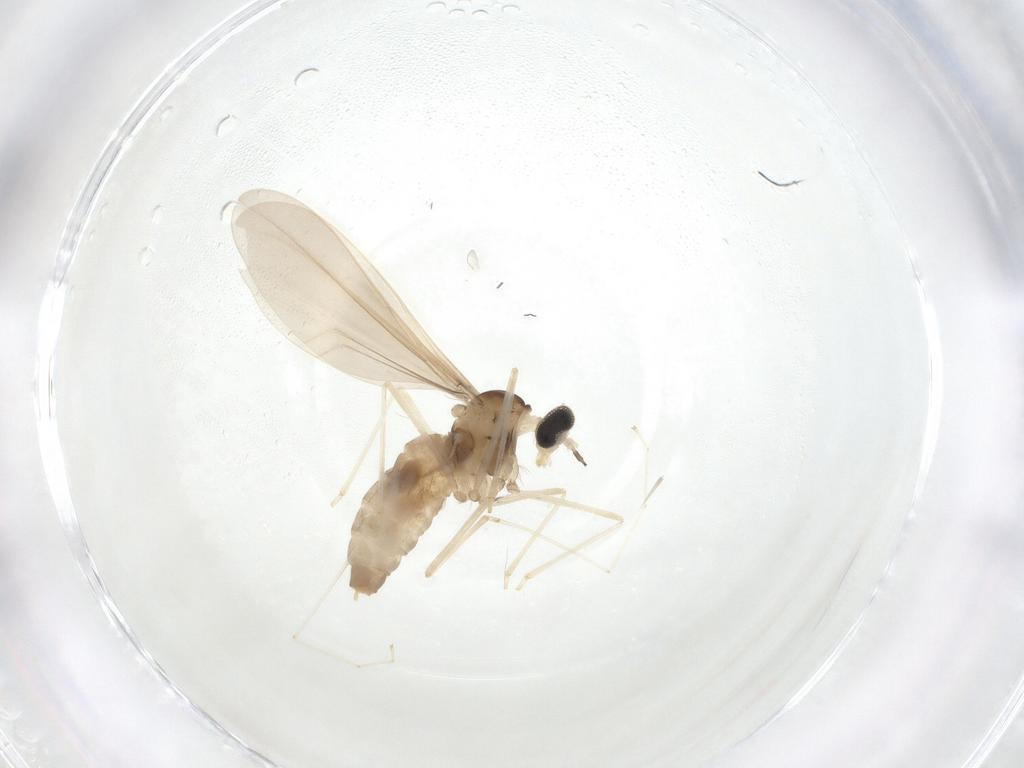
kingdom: Animalia
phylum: Arthropoda
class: Insecta
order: Diptera
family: Cecidomyiidae
